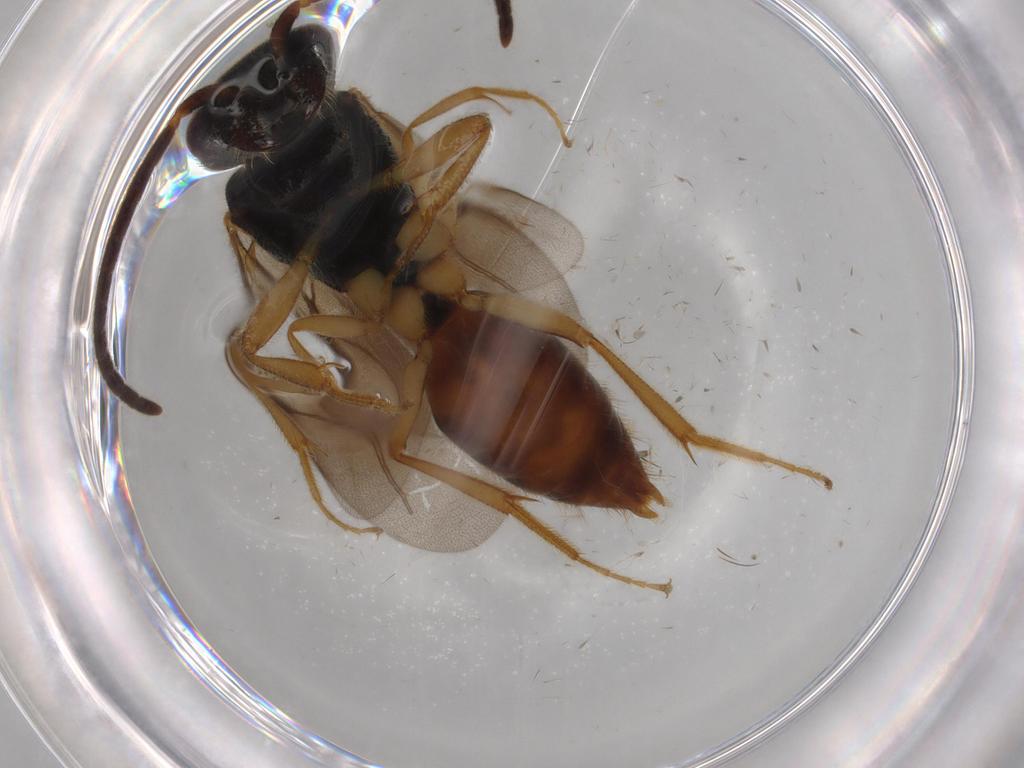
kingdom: Animalia
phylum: Arthropoda
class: Insecta
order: Hymenoptera
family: Bethylidae
